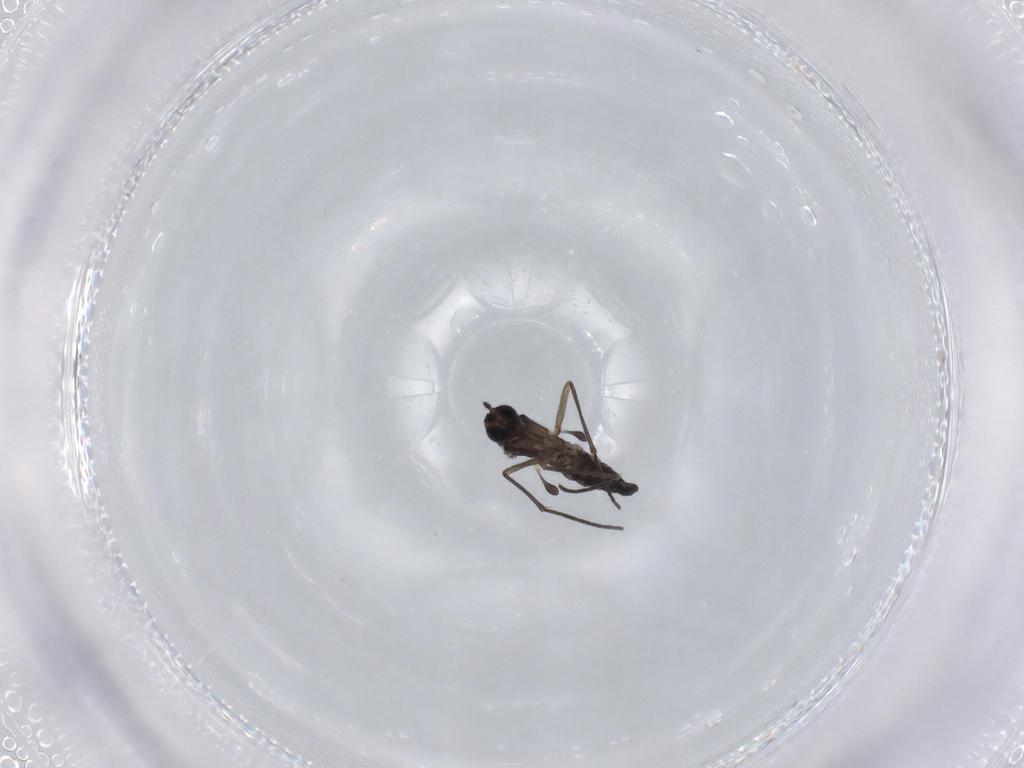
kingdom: Animalia
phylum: Arthropoda
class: Insecta
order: Diptera
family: Sciaridae
